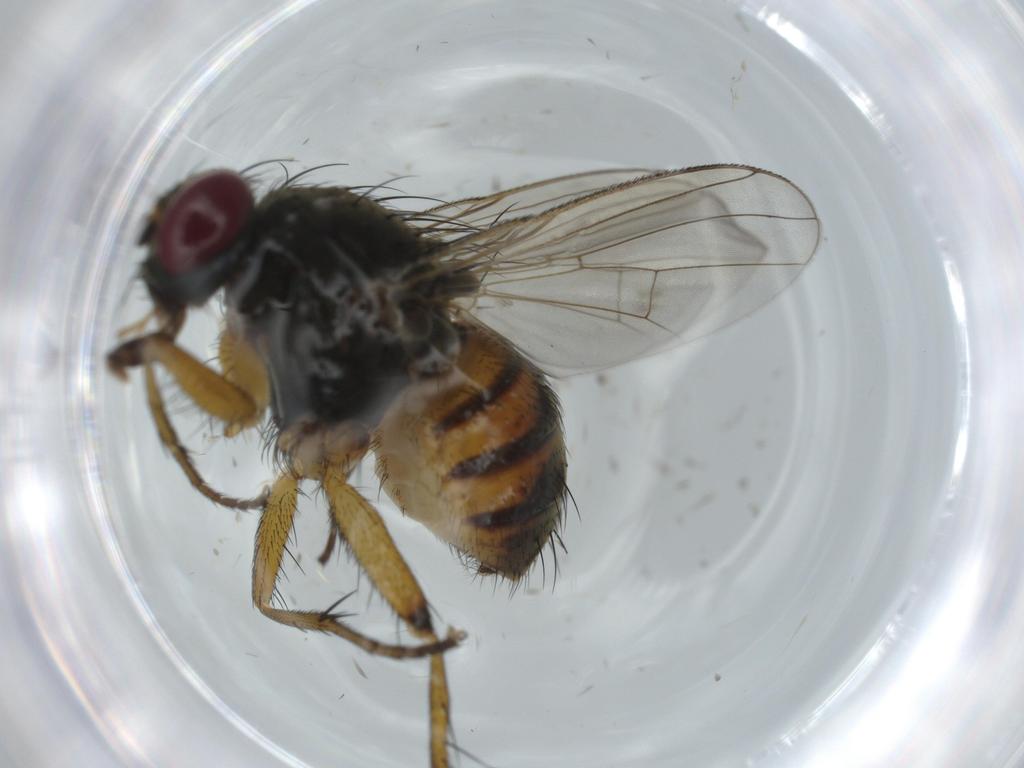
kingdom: Animalia
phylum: Arthropoda
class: Insecta
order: Diptera
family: Muscidae
